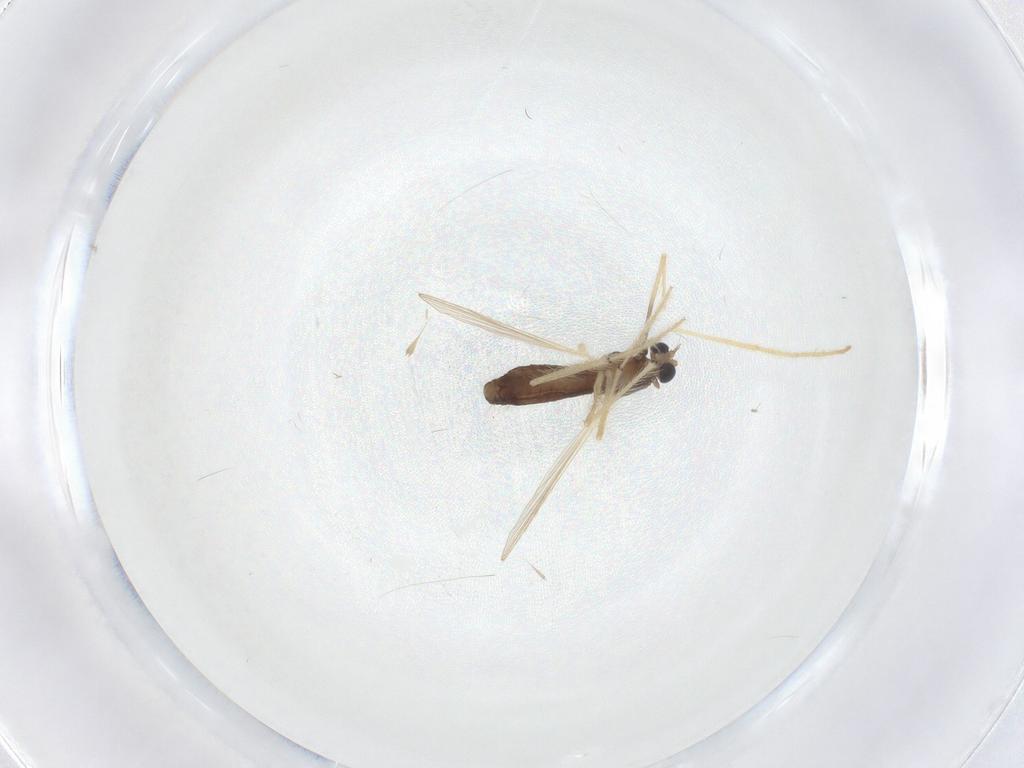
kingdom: Animalia
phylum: Arthropoda
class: Insecta
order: Diptera
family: Chironomidae
